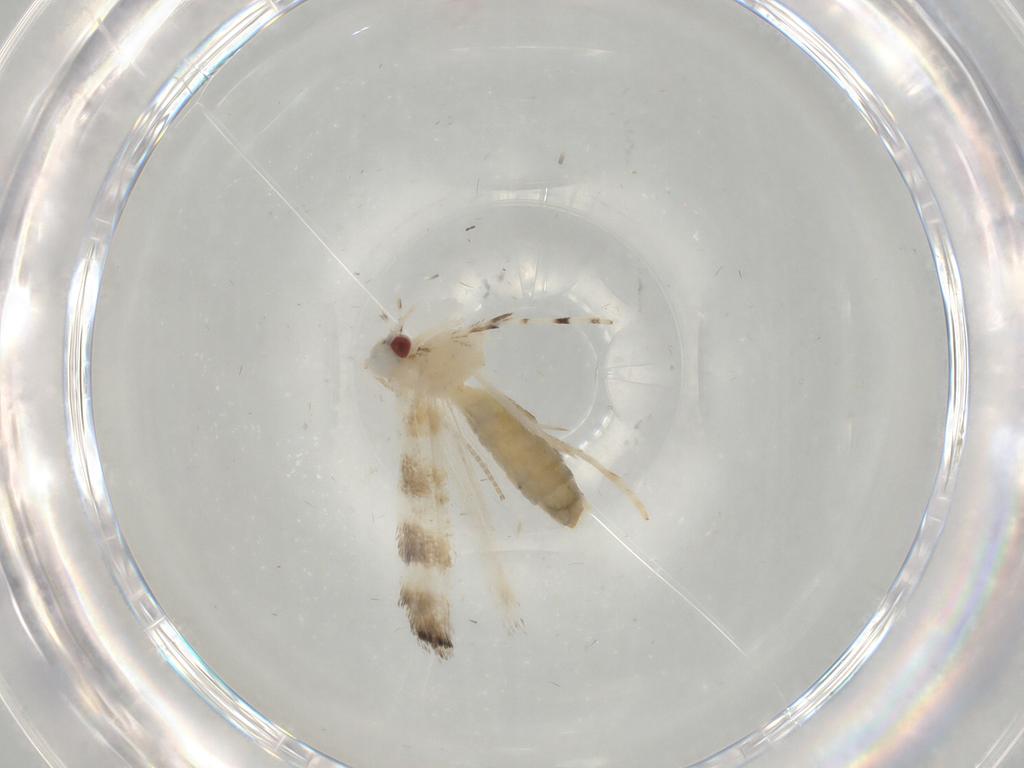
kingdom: Animalia
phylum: Arthropoda
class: Insecta
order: Lepidoptera
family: Gracillariidae
